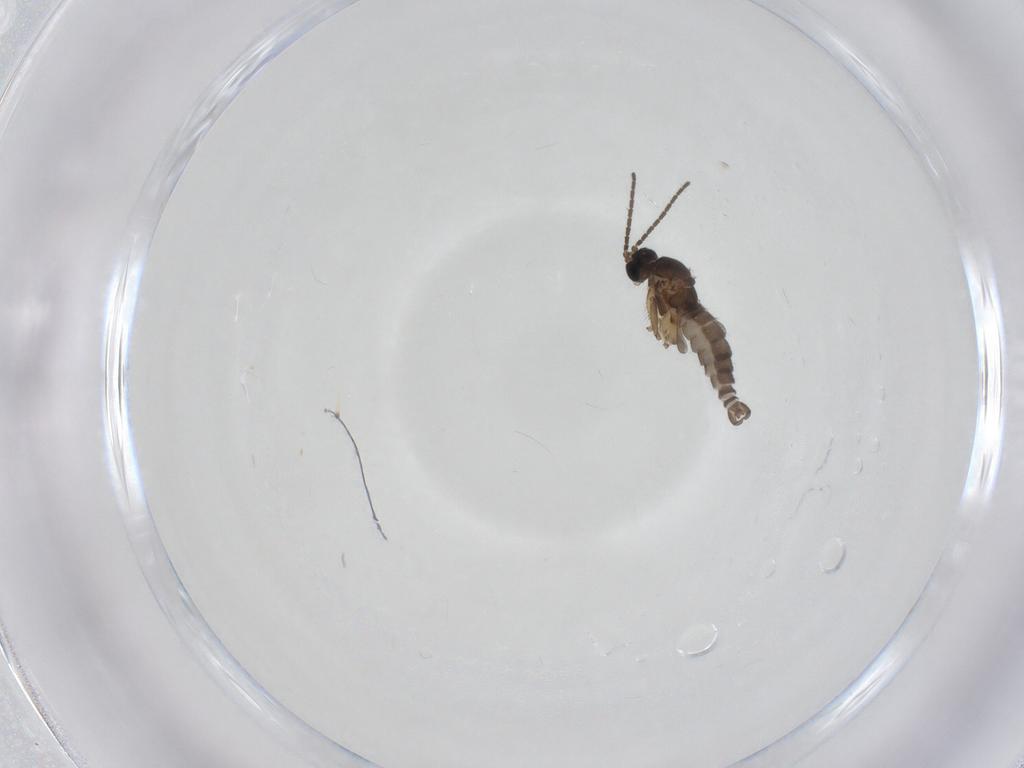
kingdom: Animalia
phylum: Arthropoda
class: Insecta
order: Diptera
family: Sciaridae
